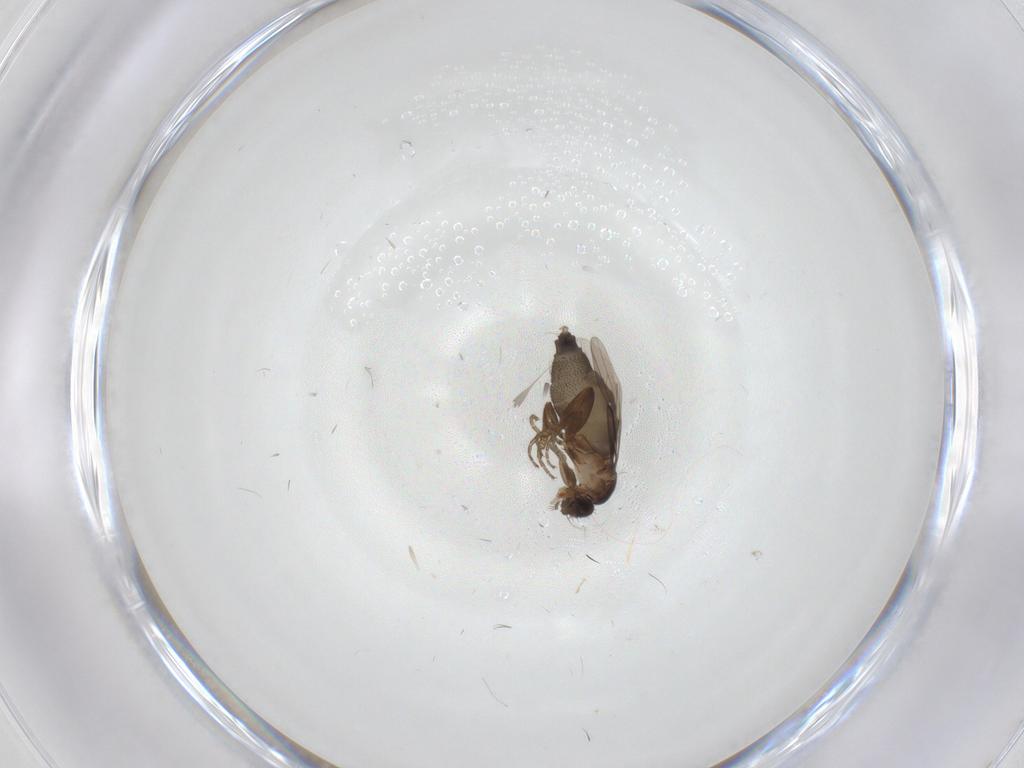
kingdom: Animalia
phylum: Arthropoda
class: Insecta
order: Diptera
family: Phoridae
